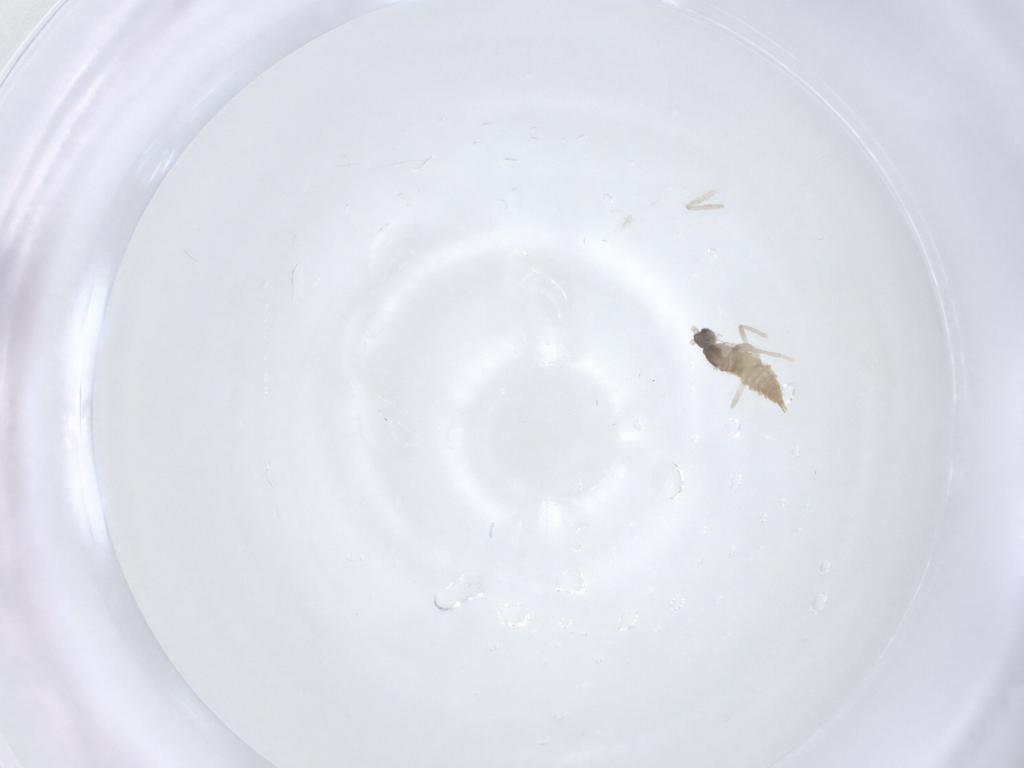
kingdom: Animalia
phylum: Arthropoda
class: Insecta
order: Diptera
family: Cecidomyiidae
